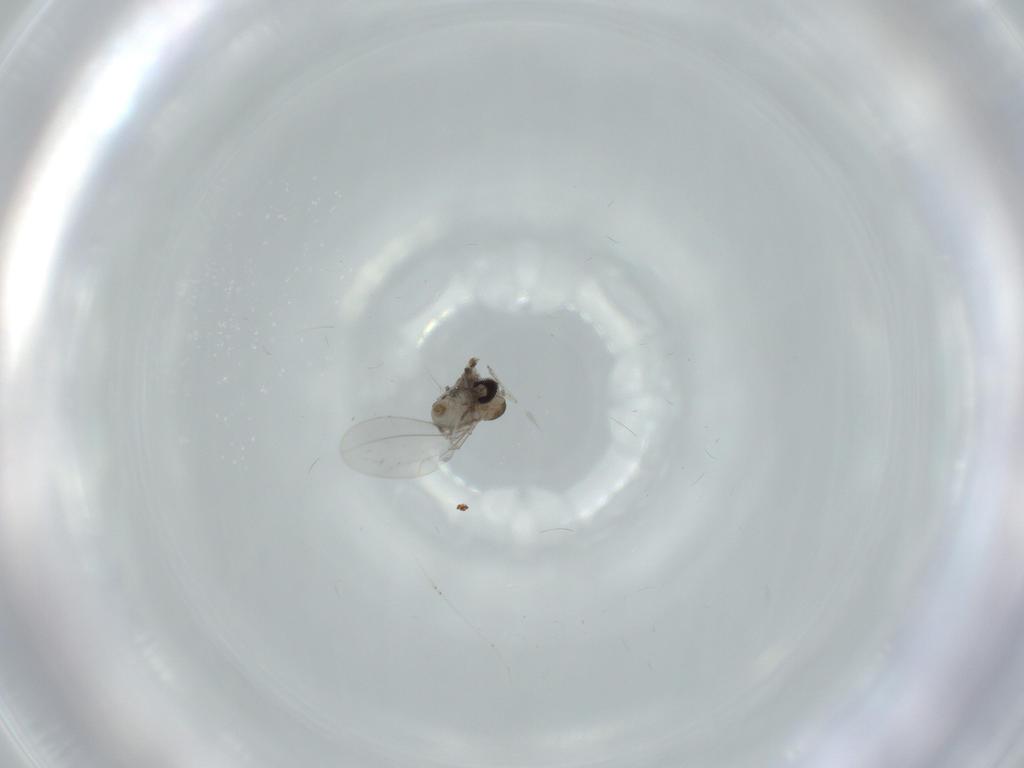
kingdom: Animalia
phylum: Arthropoda
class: Insecta
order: Diptera
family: Cecidomyiidae
